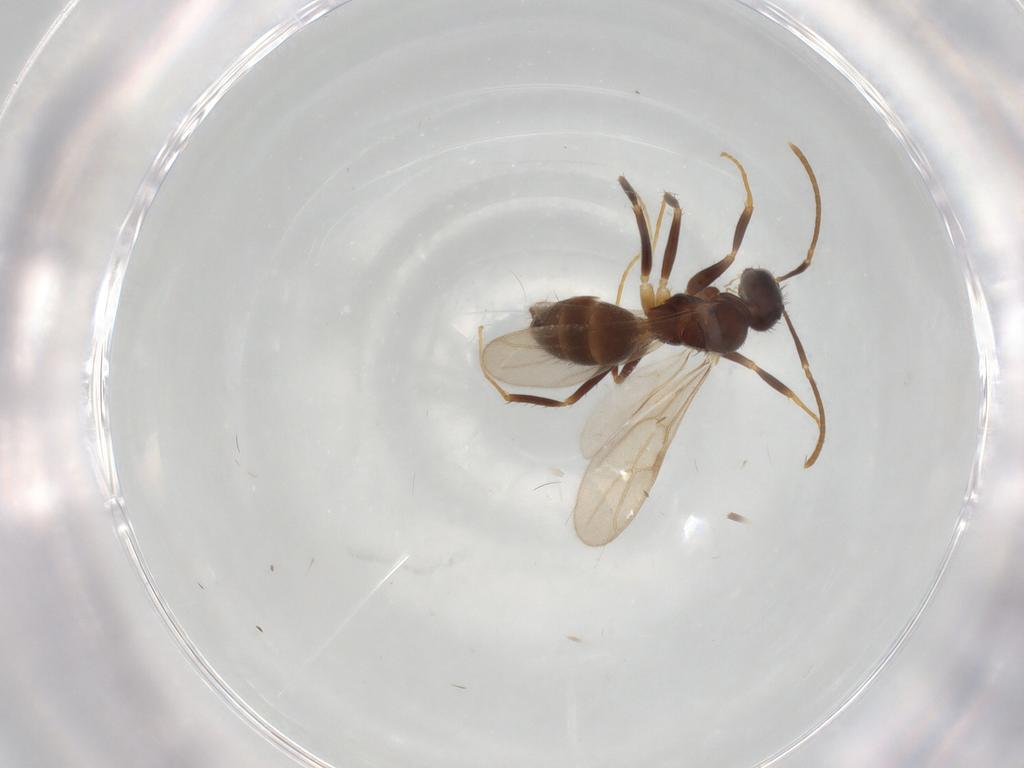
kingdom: Animalia
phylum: Arthropoda
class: Insecta
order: Hymenoptera
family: Formicidae
